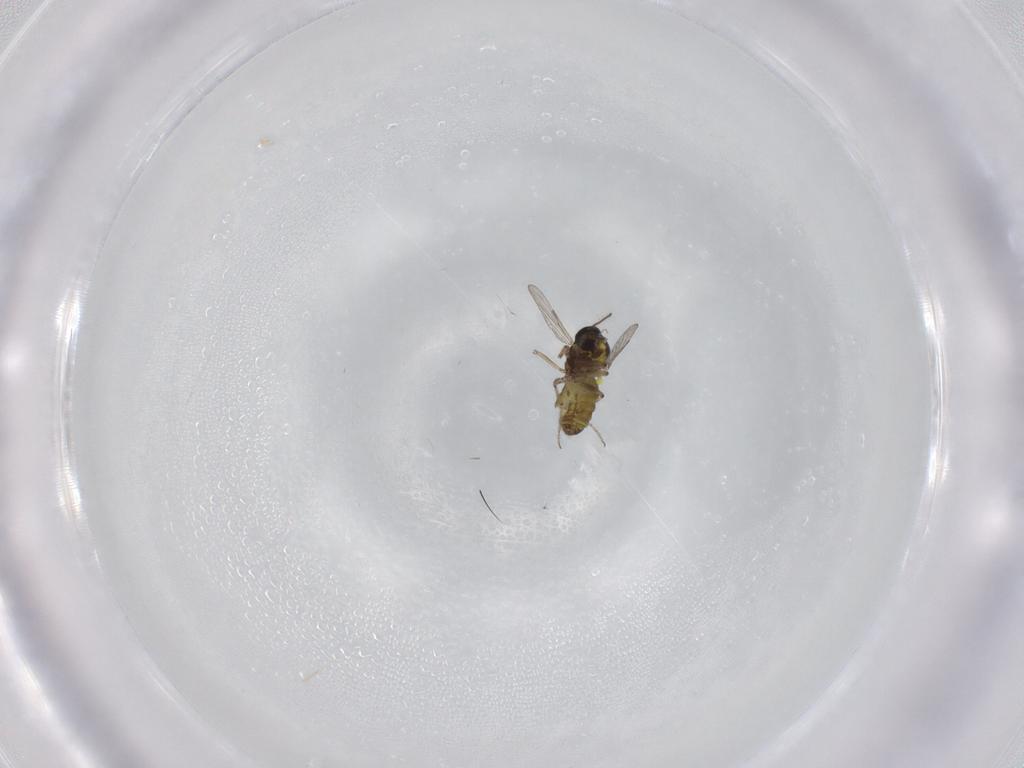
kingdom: Animalia
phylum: Arthropoda
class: Insecta
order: Diptera
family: Ceratopogonidae
